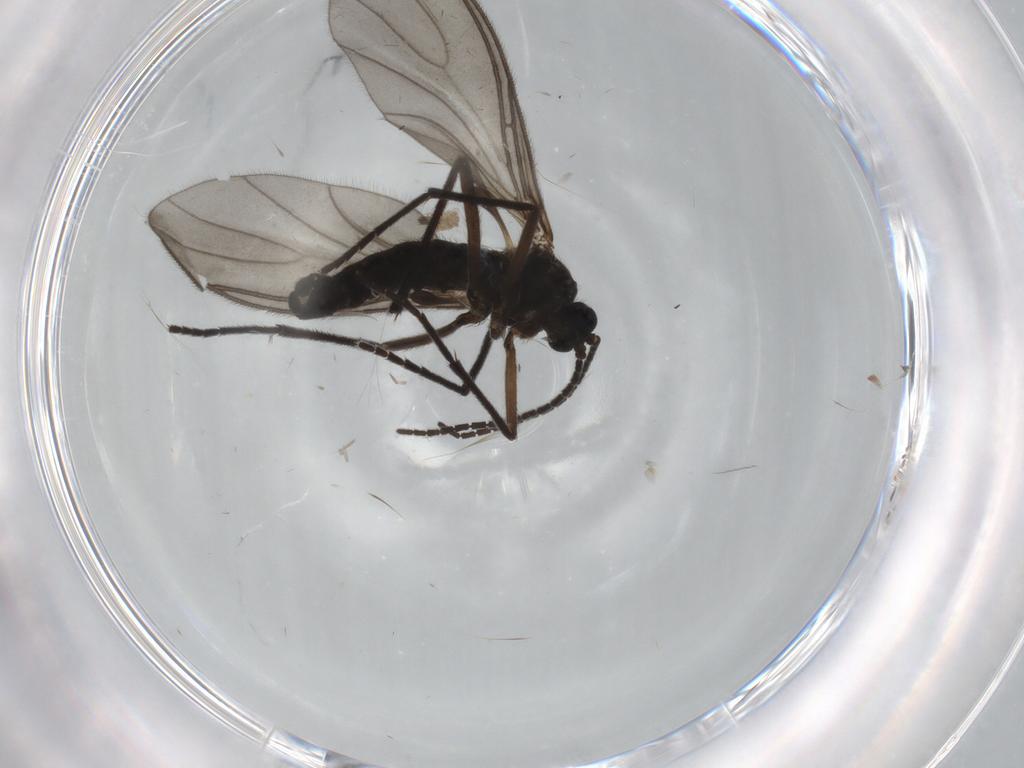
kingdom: Animalia
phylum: Arthropoda
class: Insecta
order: Diptera
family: Sciaridae
